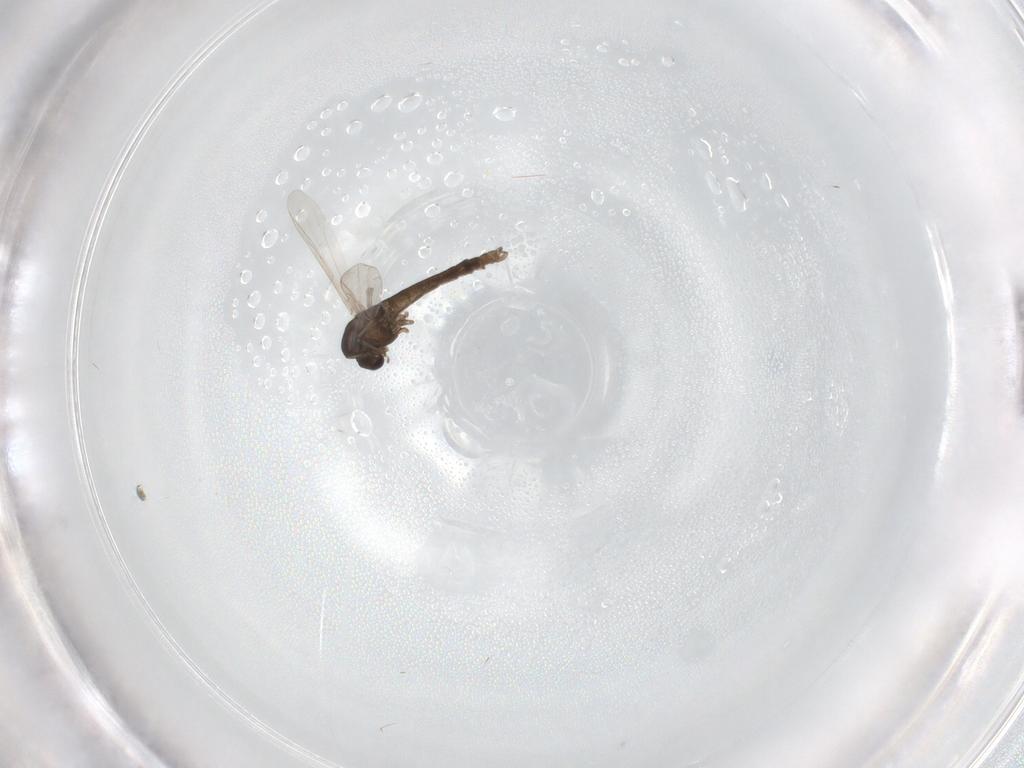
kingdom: Animalia
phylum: Arthropoda
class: Insecta
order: Diptera
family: Chironomidae
